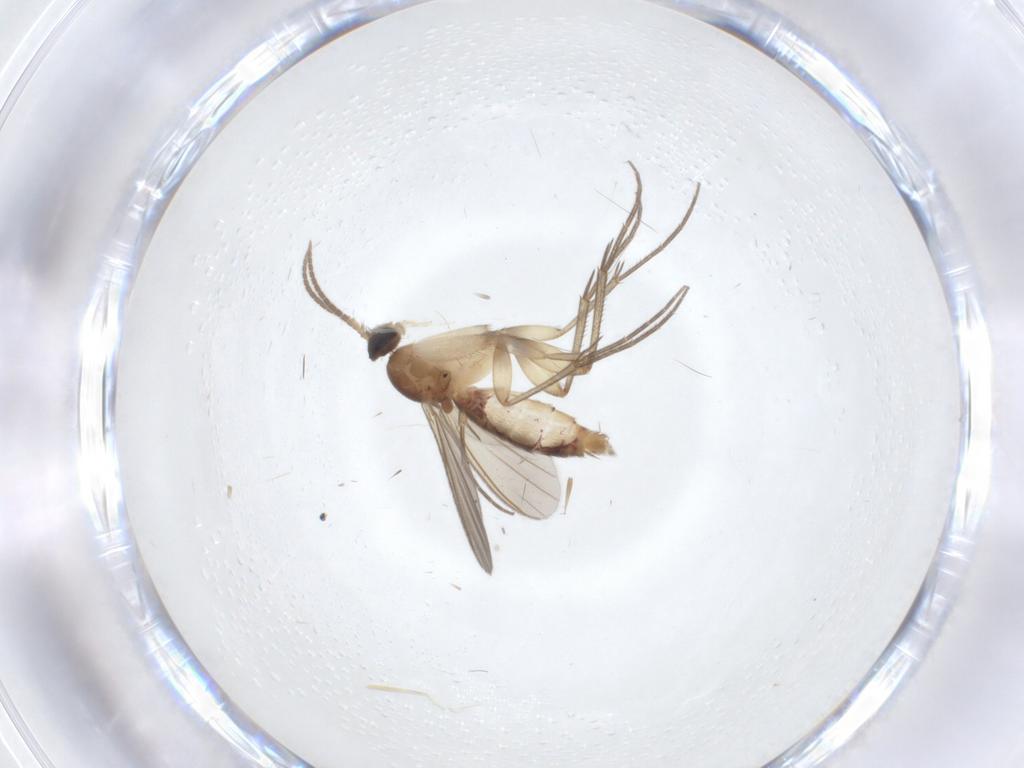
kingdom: Animalia
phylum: Arthropoda
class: Insecta
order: Diptera
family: Mycetophilidae
